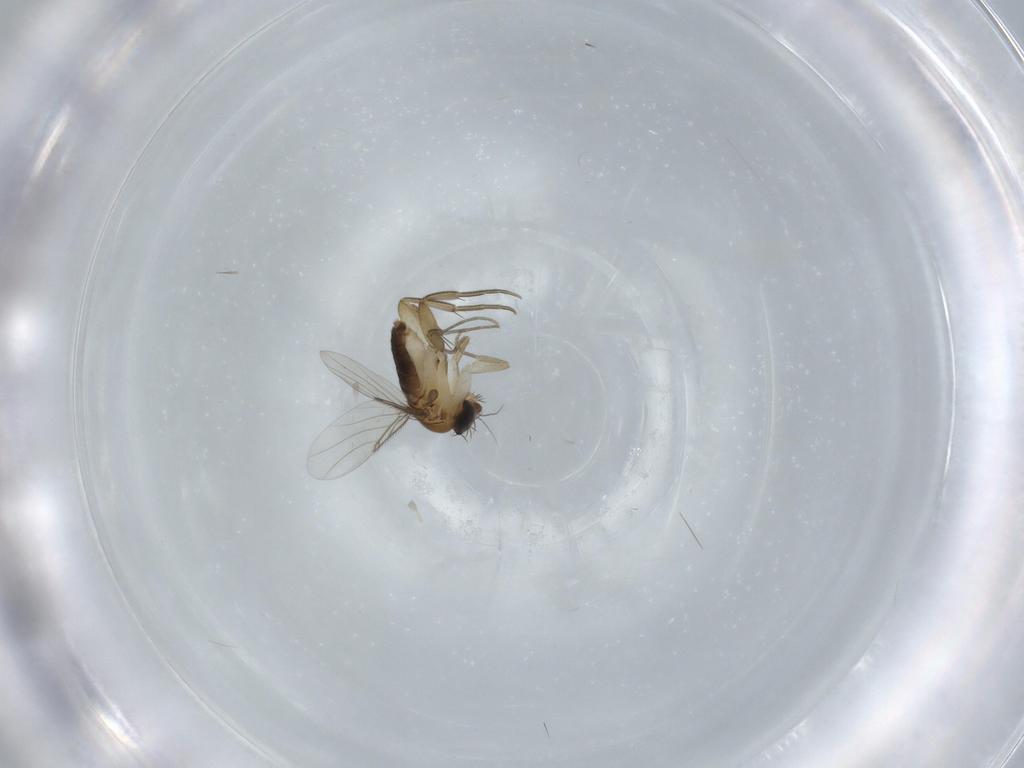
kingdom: Animalia
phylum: Arthropoda
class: Insecta
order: Diptera
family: Phoridae
